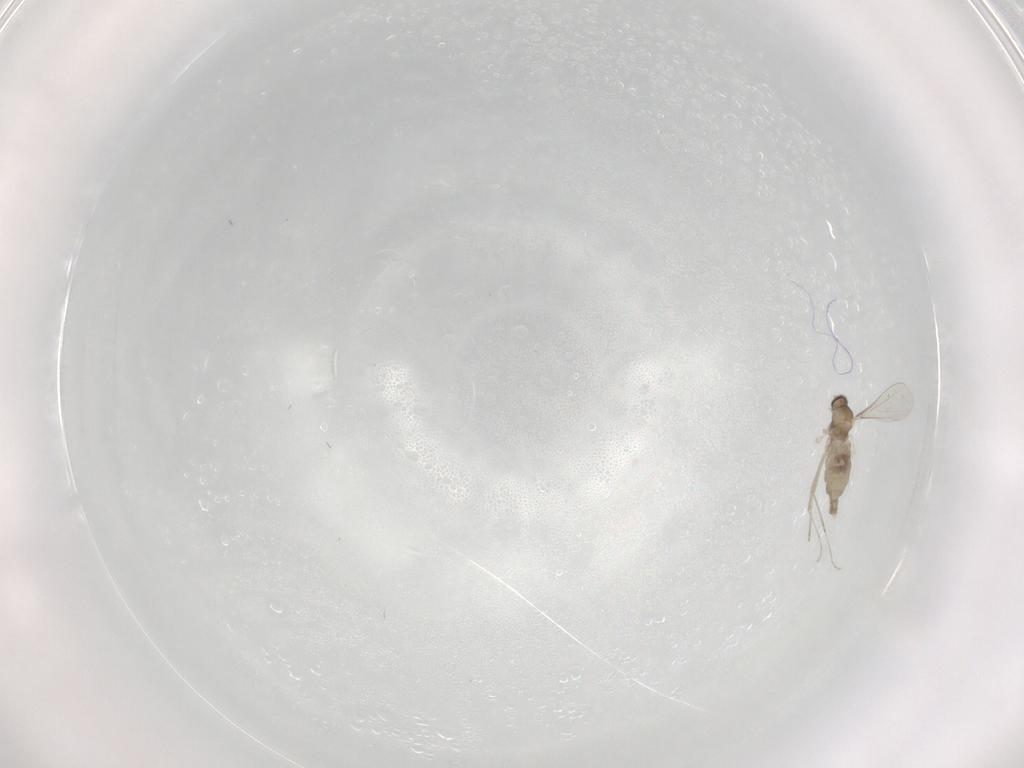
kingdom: Animalia
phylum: Arthropoda
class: Insecta
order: Diptera
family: Cecidomyiidae
